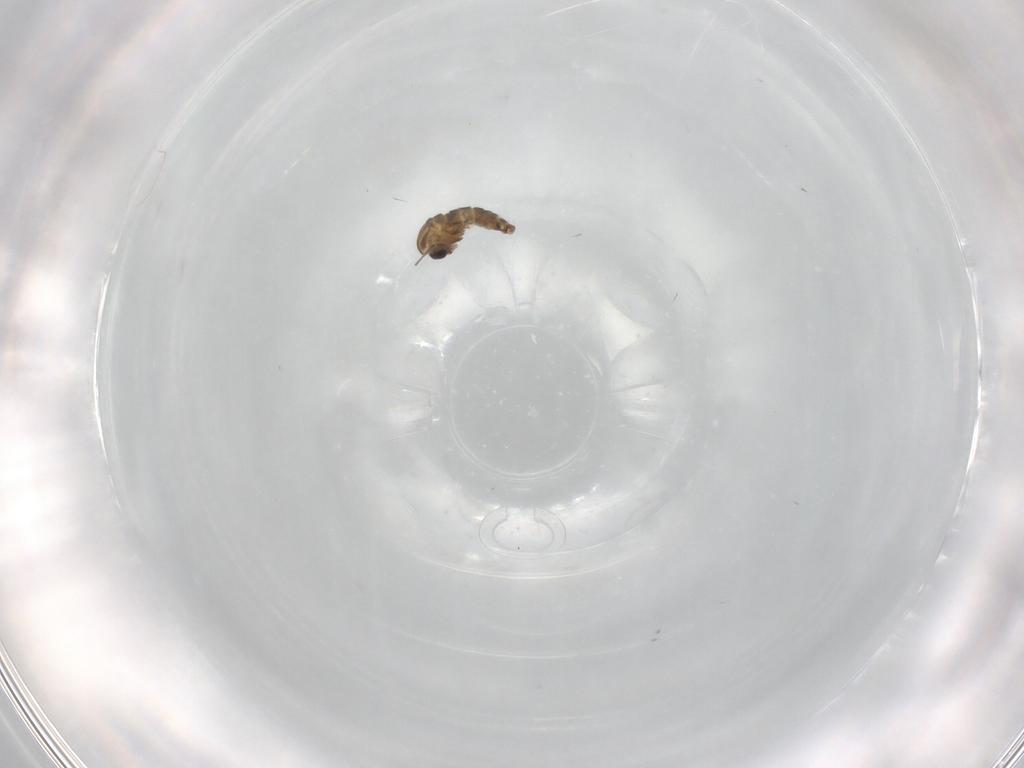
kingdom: Animalia
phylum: Arthropoda
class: Insecta
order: Diptera
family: Chironomidae
